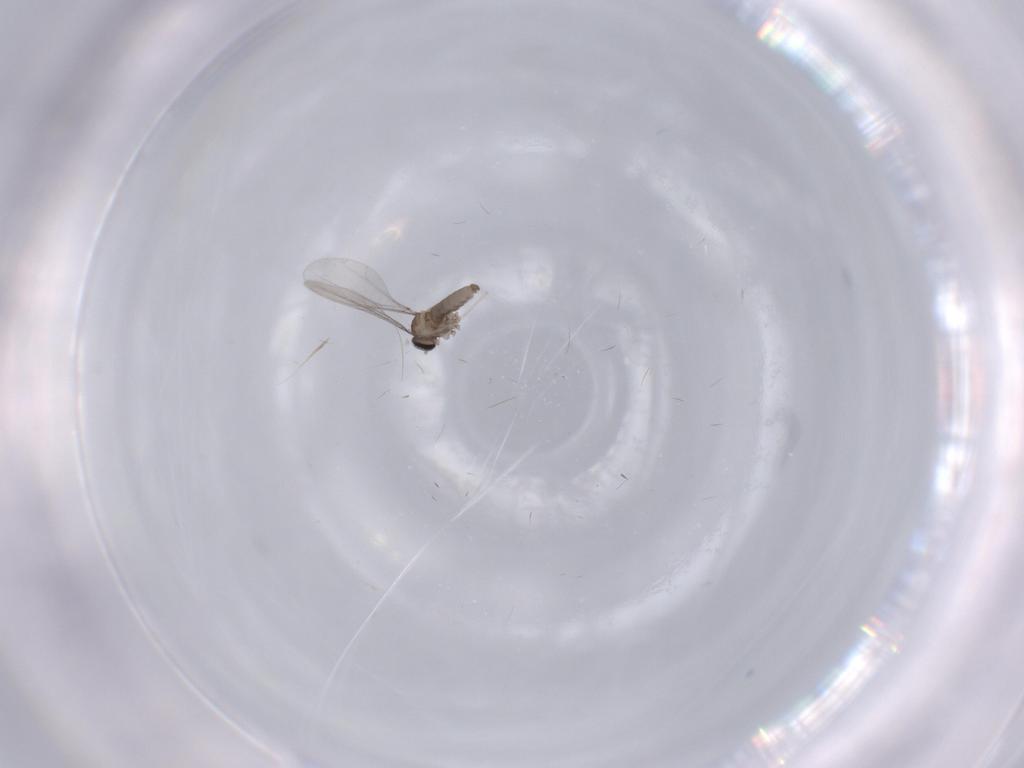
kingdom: Animalia
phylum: Arthropoda
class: Insecta
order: Diptera
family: Cecidomyiidae
